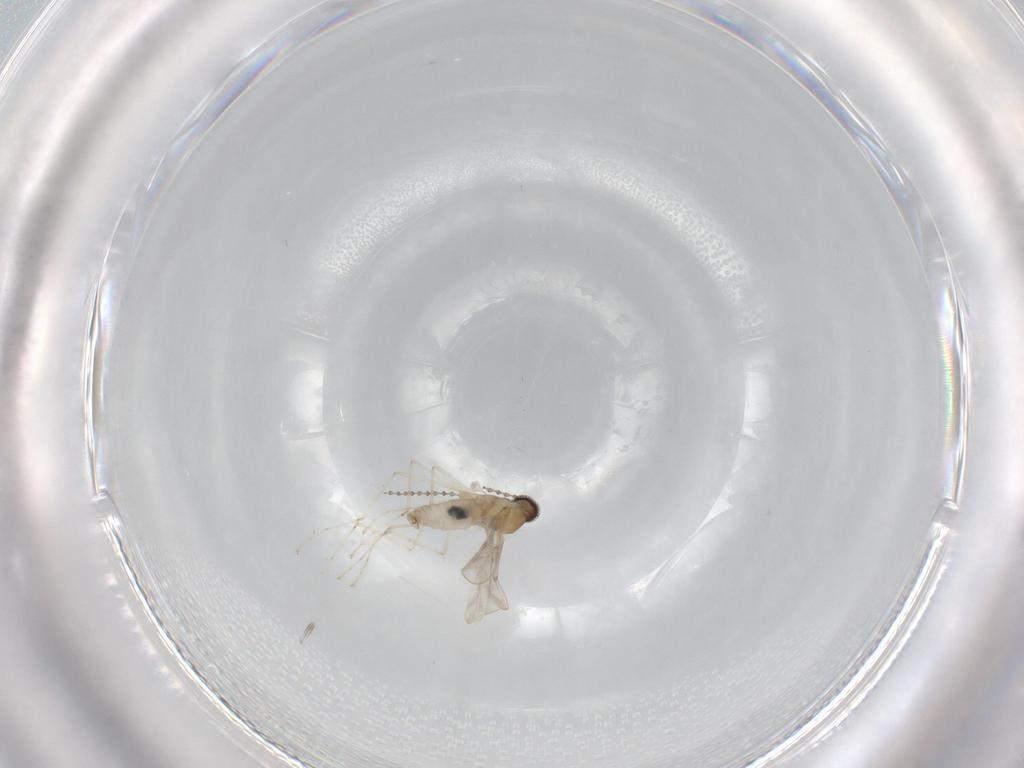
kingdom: Animalia
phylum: Arthropoda
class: Insecta
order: Diptera
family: Cecidomyiidae
